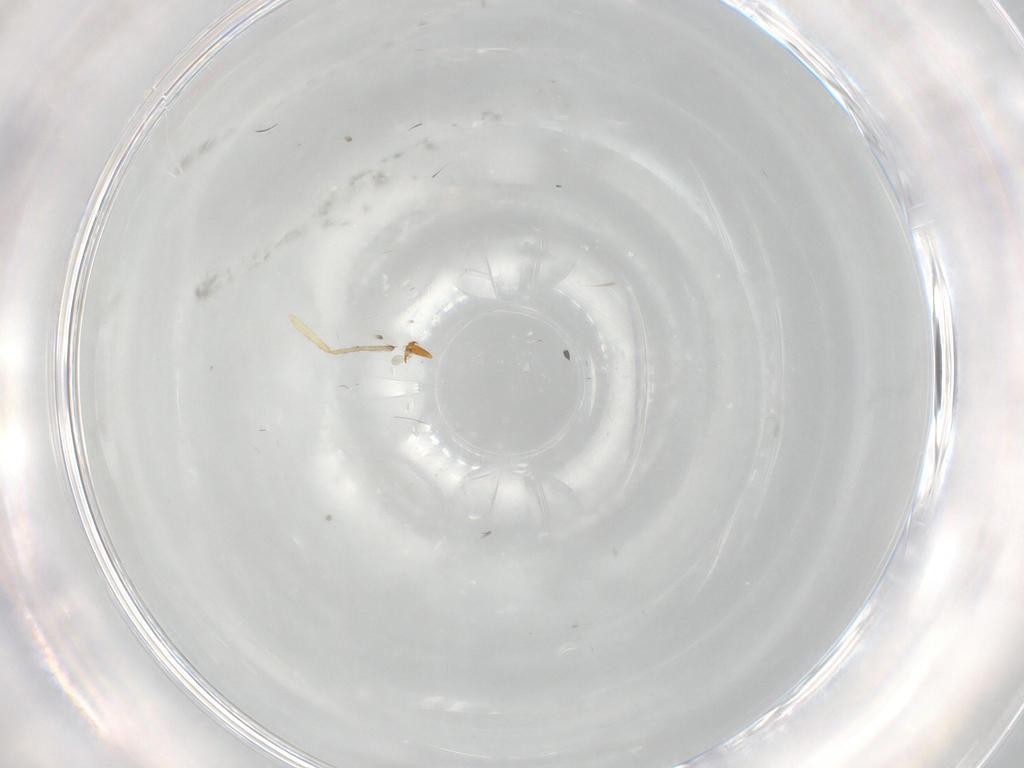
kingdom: Animalia
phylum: Arthropoda
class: Insecta
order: Diptera
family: Cecidomyiidae
